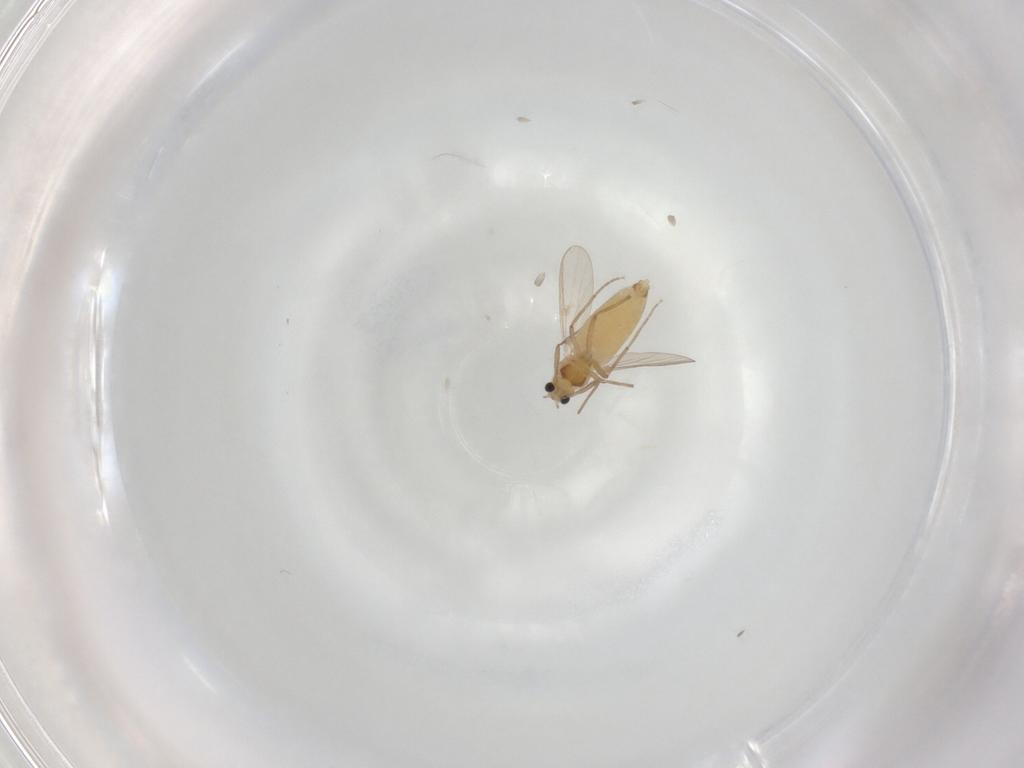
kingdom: Animalia
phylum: Arthropoda
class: Insecta
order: Diptera
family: Chironomidae
